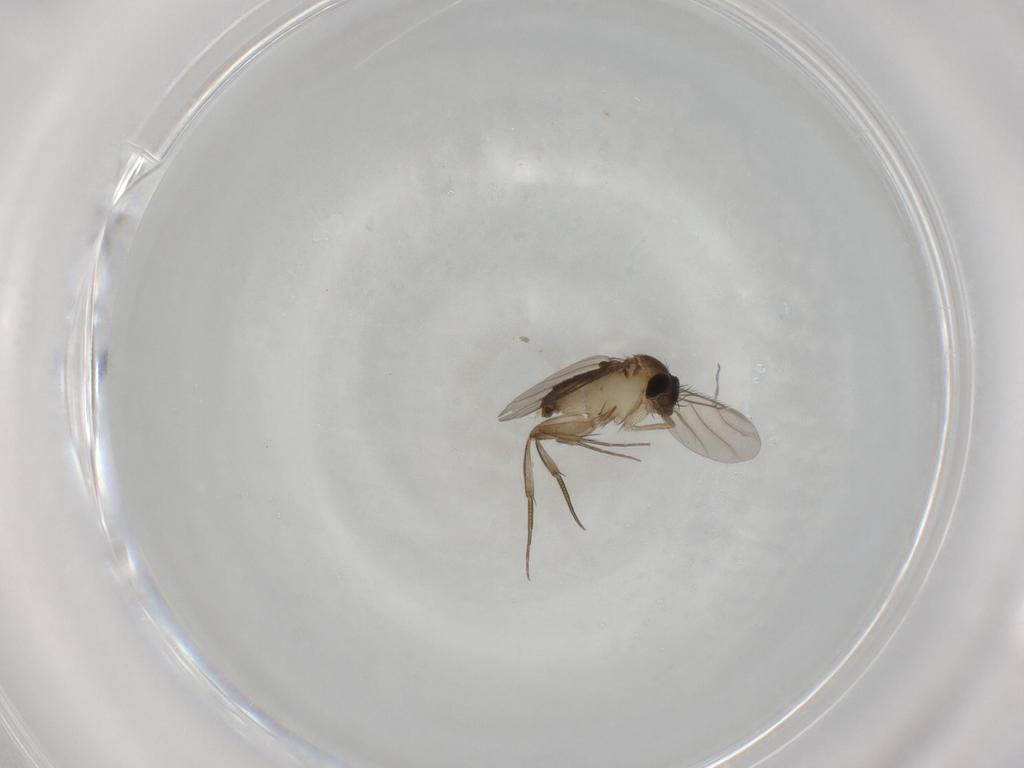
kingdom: Animalia
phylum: Arthropoda
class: Insecta
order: Diptera
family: Phoridae
